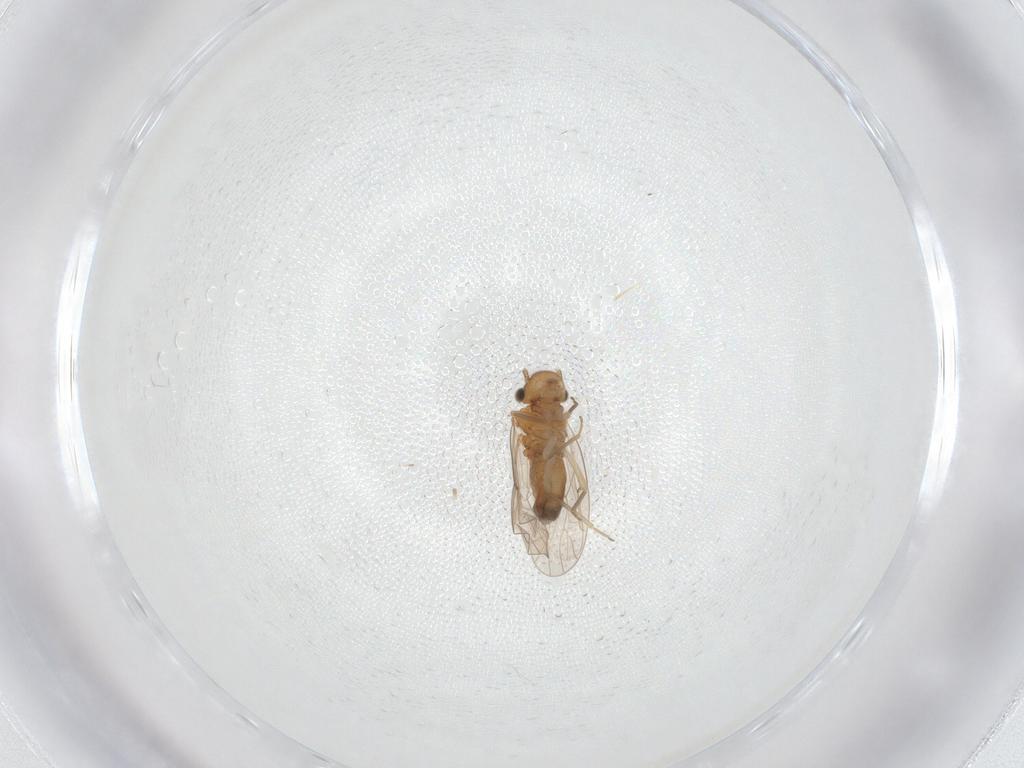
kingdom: Animalia
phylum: Arthropoda
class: Insecta
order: Psocodea
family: Ectopsocidae
